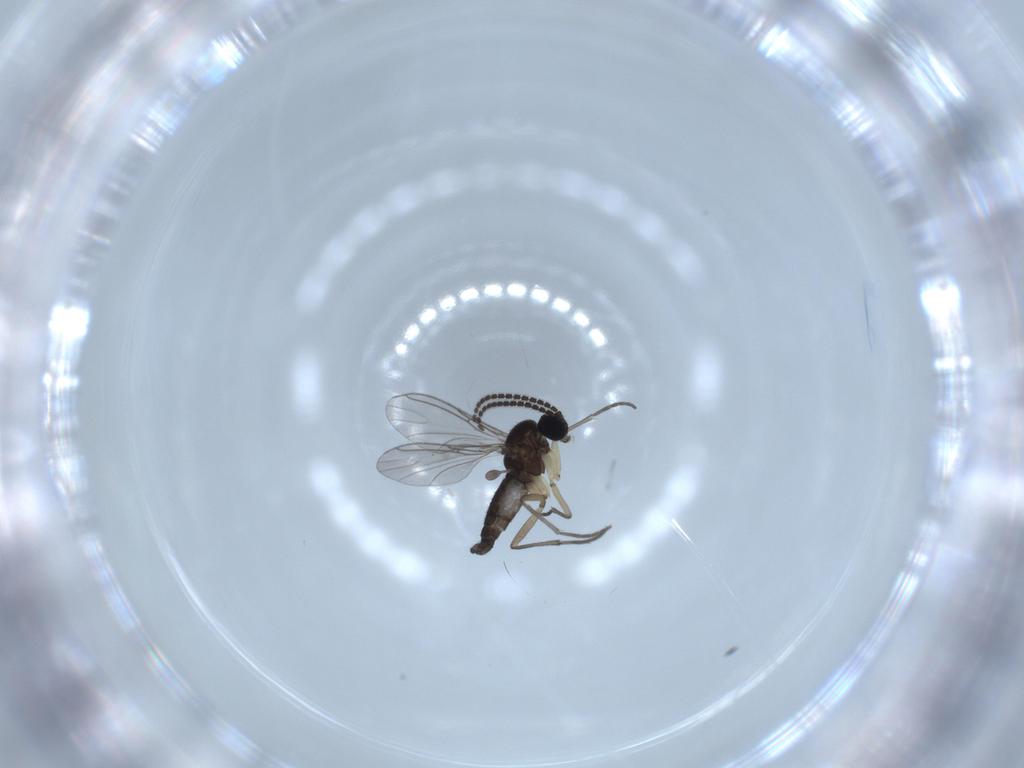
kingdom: Animalia
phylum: Arthropoda
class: Insecta
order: Diptera
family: Sciaridae
